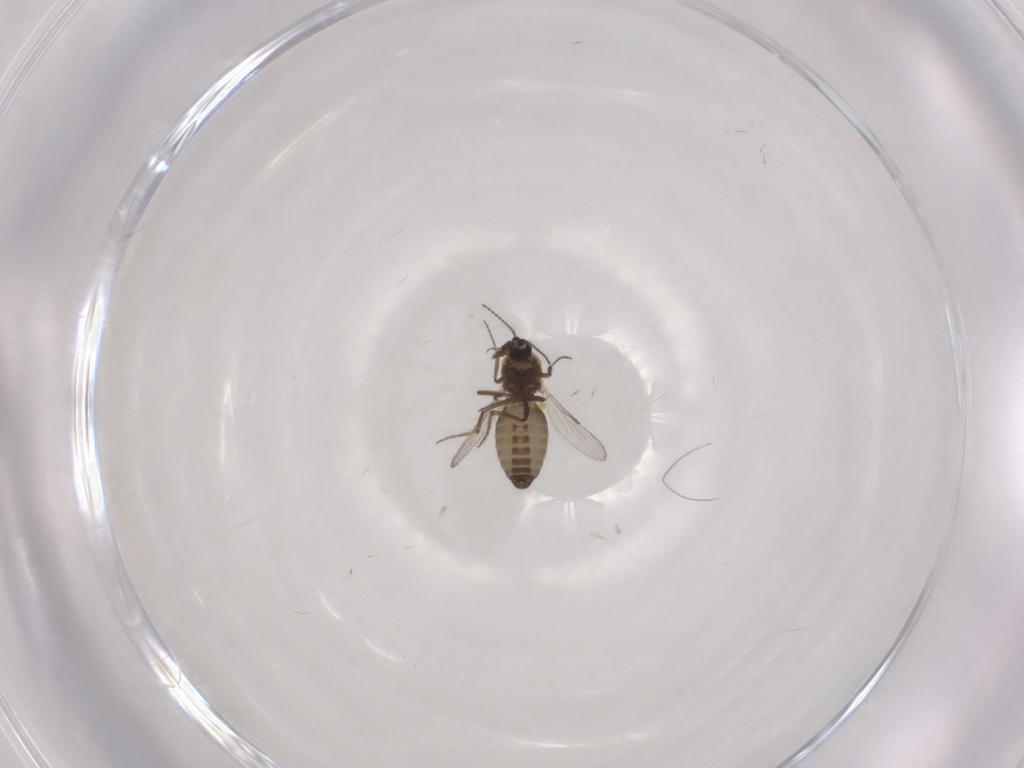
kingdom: Animalia
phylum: Arthropoda
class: Insecta
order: Diptera
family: Ceratopogonidae
